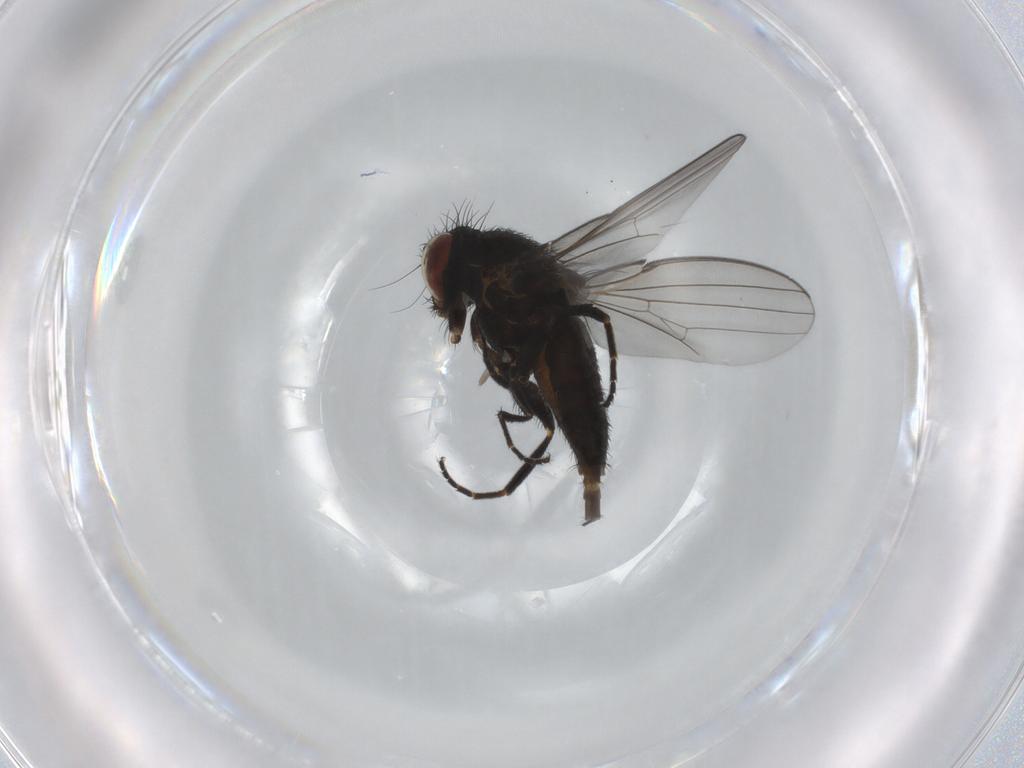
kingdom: Animalia
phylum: Arthropoda
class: Insecta
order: Diptera
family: Milichiidae
